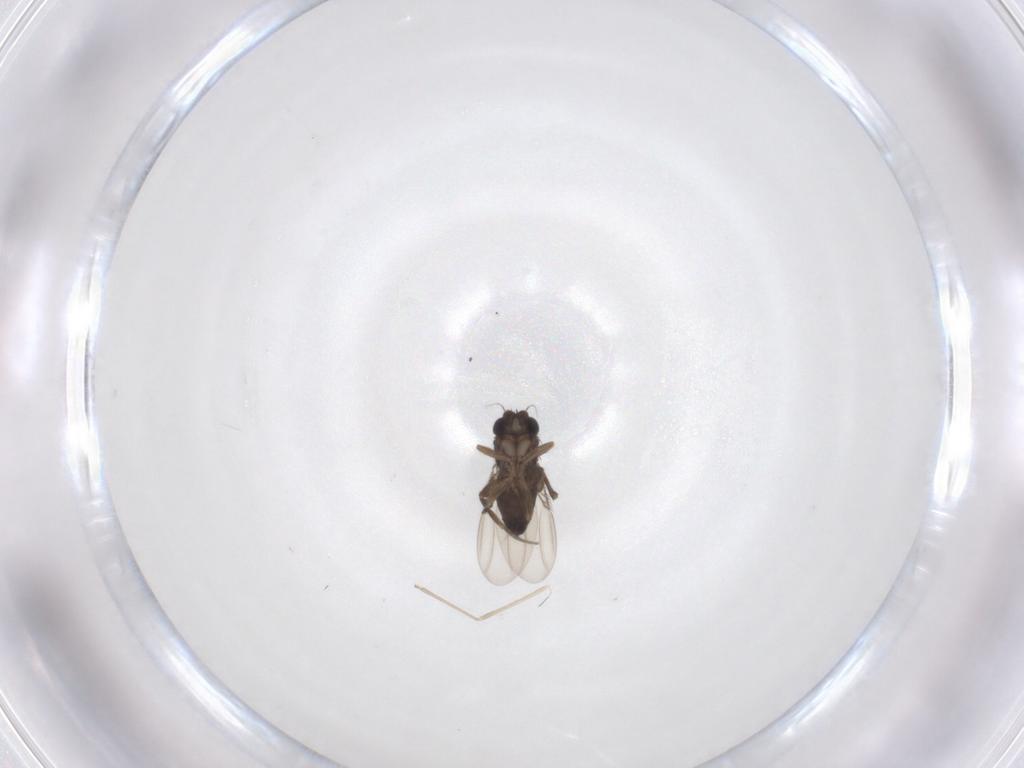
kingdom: Animalia
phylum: Arthropoda
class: Insecta
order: Diptera
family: Phoridae
